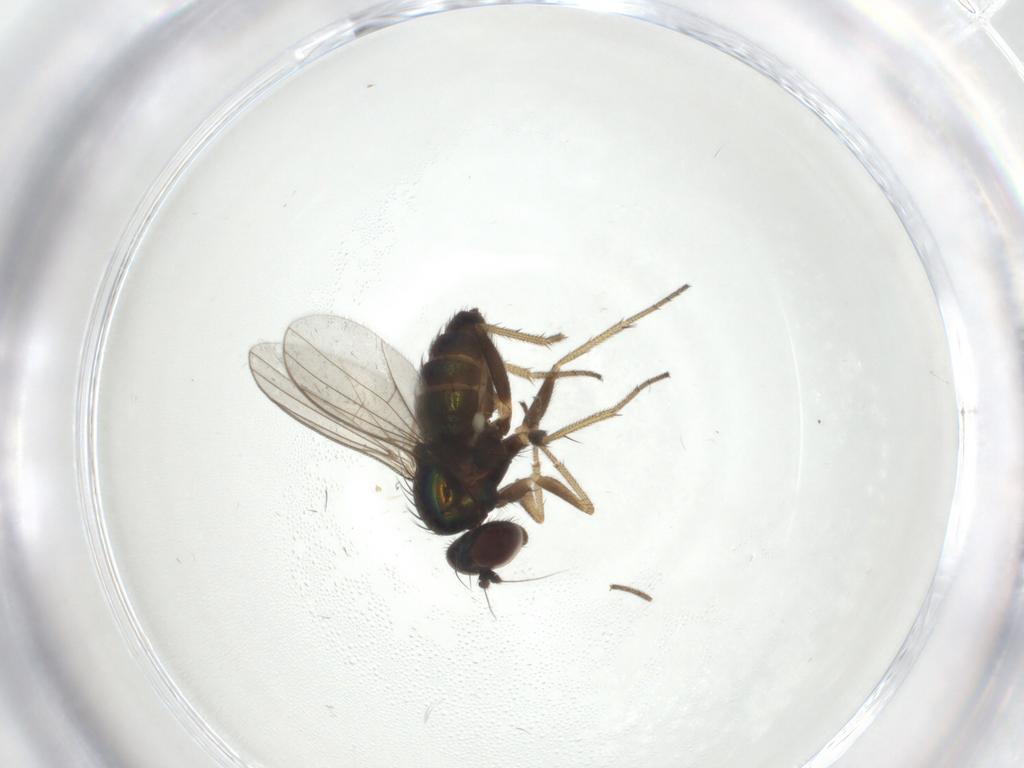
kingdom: Animalia
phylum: Arthropoda
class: Insecta
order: Diptera
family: Cecidomyiidae
